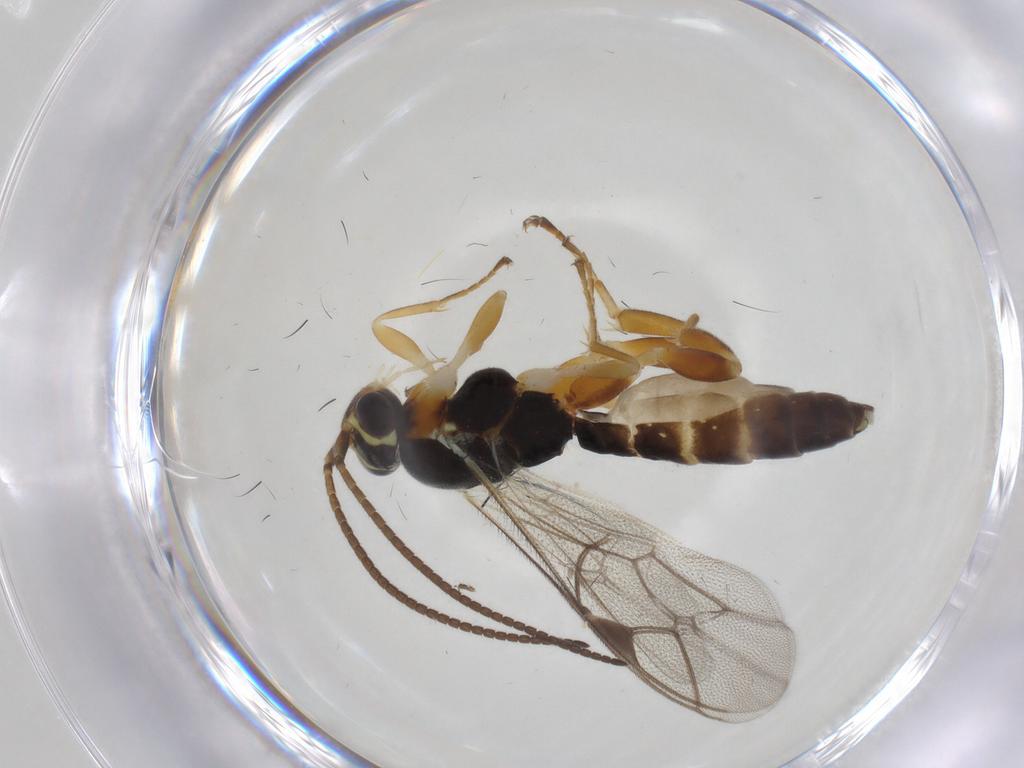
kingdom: Animalia
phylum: Arthropoda
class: Insecta
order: Hymenoptera
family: Ichneumonidae
